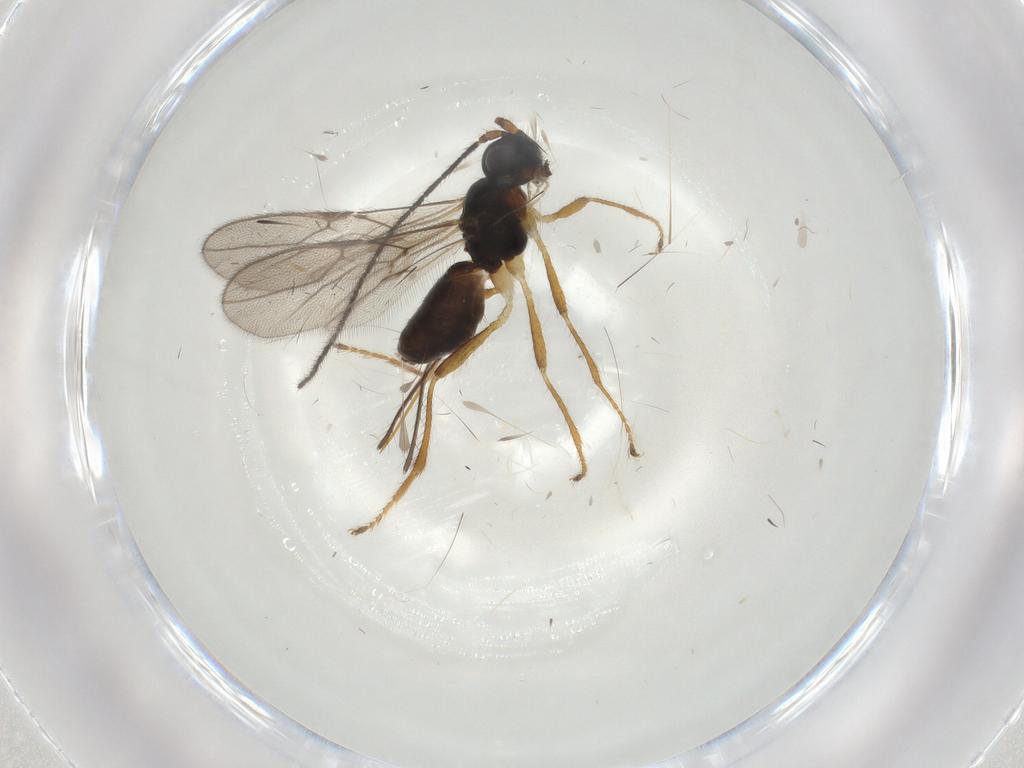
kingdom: Animalia
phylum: Arthropoda
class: Insecta
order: Hymenoptera
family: Braconidae
